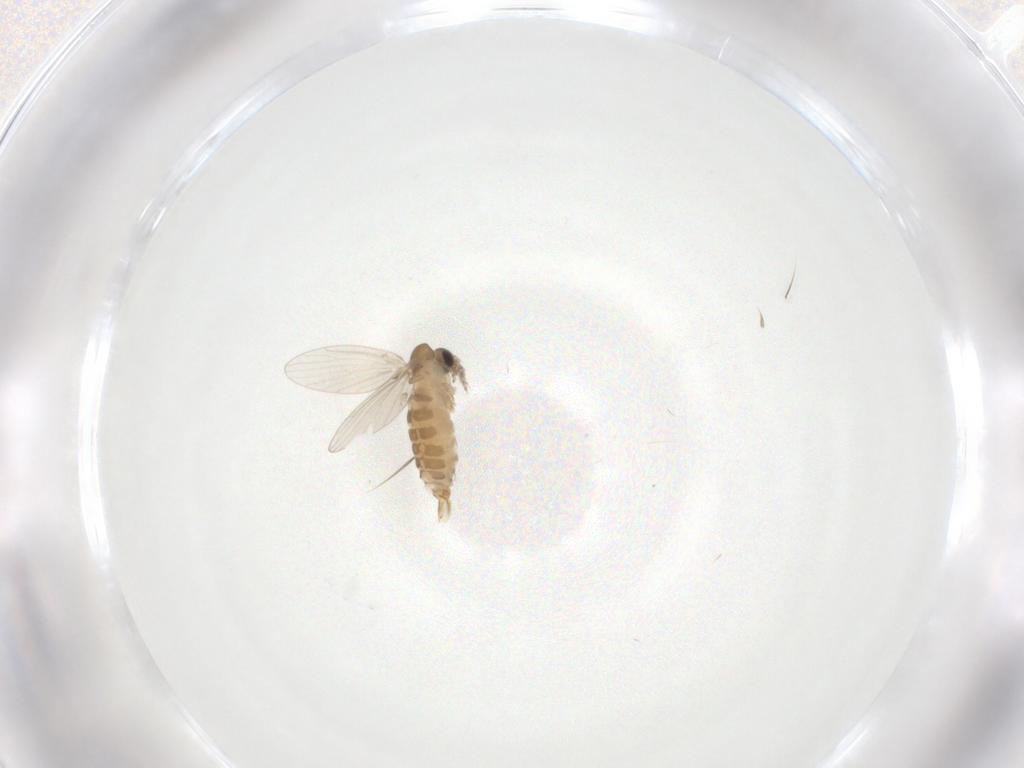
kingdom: Animalia
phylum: Arthropoda
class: Insecta
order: Diptera
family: Psychodidae
